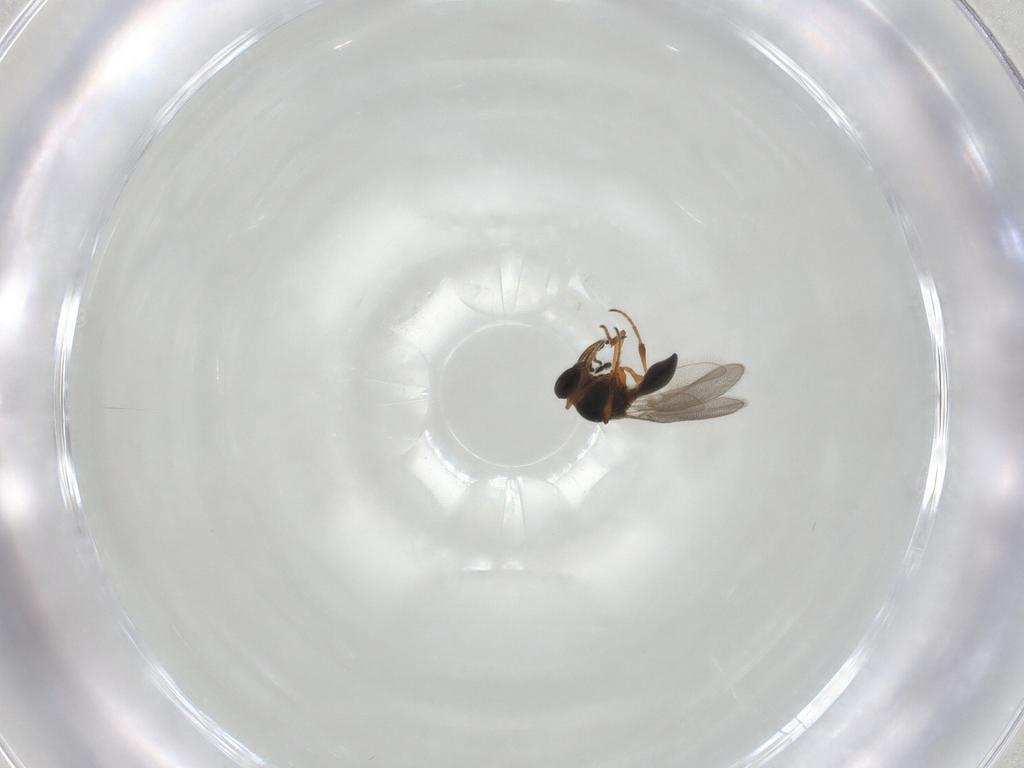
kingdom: Animalia
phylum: Arthropoda
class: Insecta
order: Hymenoptera
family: Platygastridae
